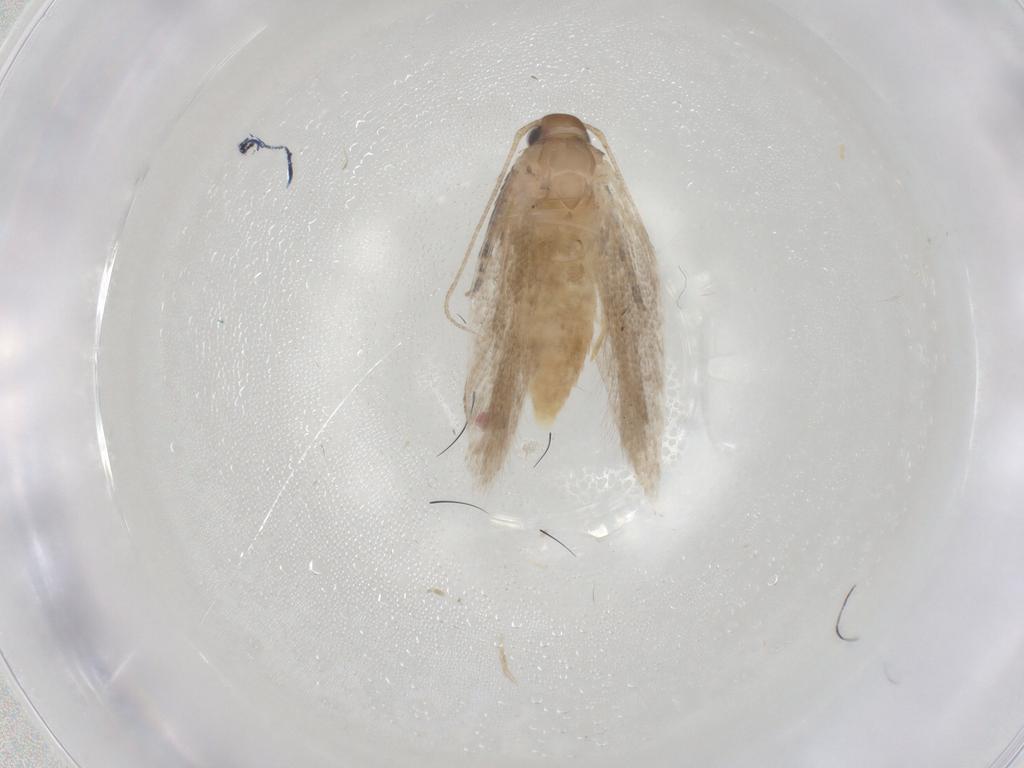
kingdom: Animalia
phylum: Arthropoda
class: Insecta
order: Lepidoptera
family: Gelechiidae
